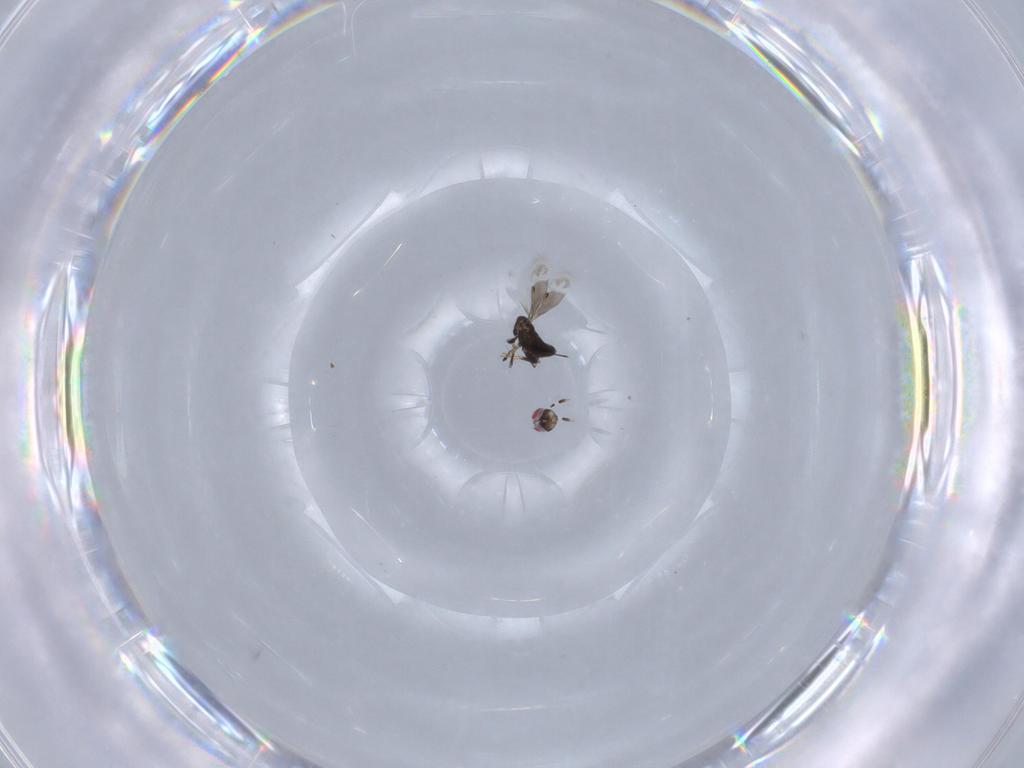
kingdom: Animalia
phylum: Arthropoda
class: Insecta
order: Hymenoptera
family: Azotidae
